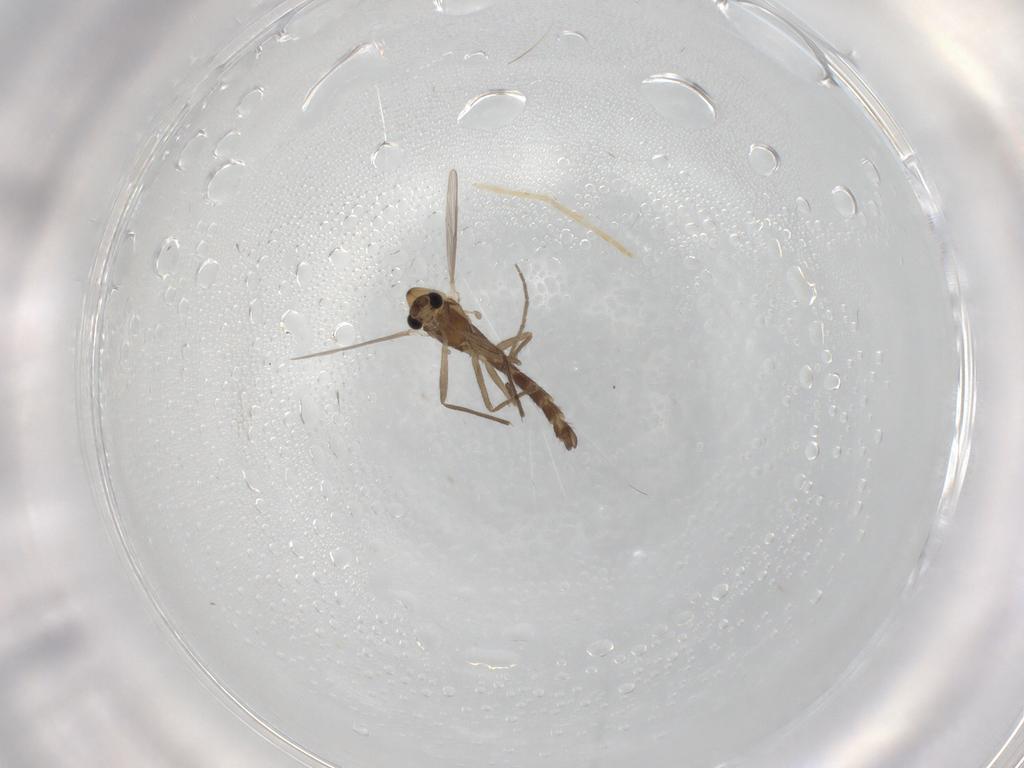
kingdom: Animalia
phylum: Arthropoda
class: Insecta
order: Diptera
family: Chironomidae
